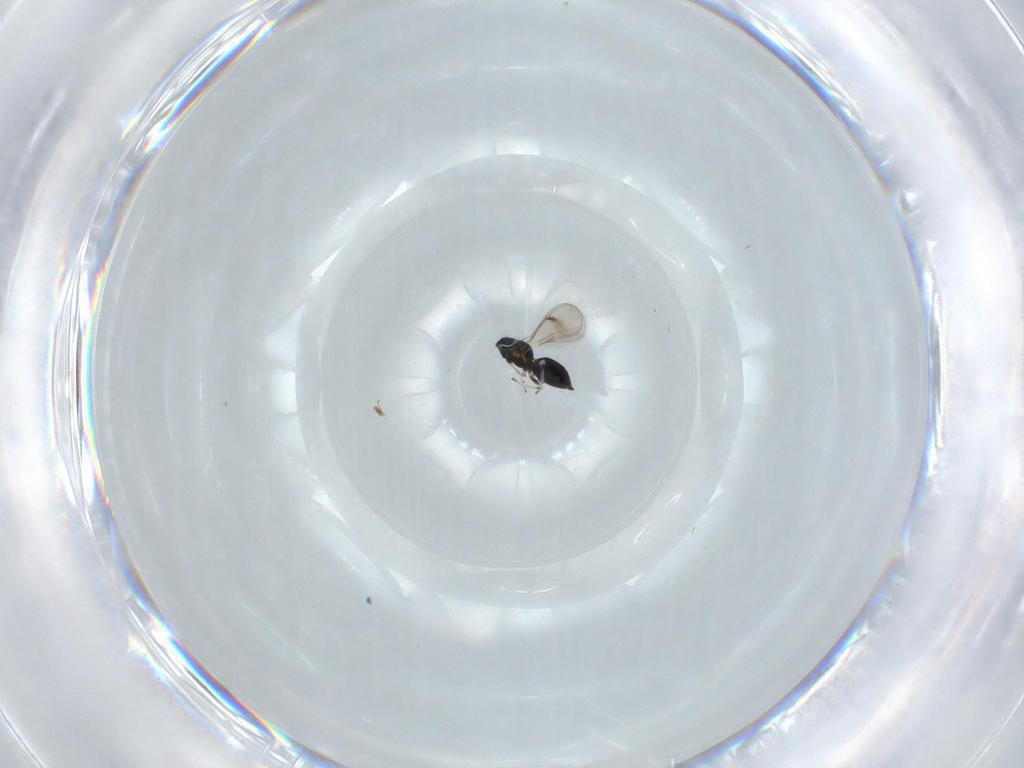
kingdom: Animalia
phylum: Arthropoda
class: Insecta
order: Hymenoptera
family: Eulophidae
